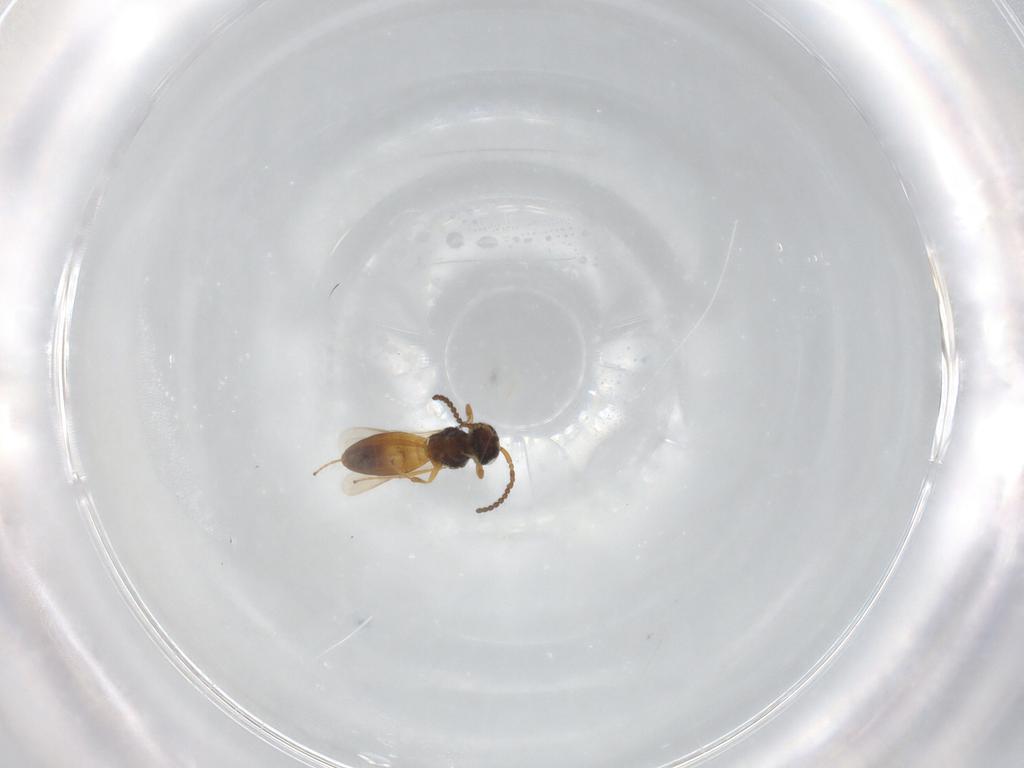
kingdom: Animalia
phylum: Arthropoda
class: Insecta
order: Hymenoptera
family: Scelionidae
